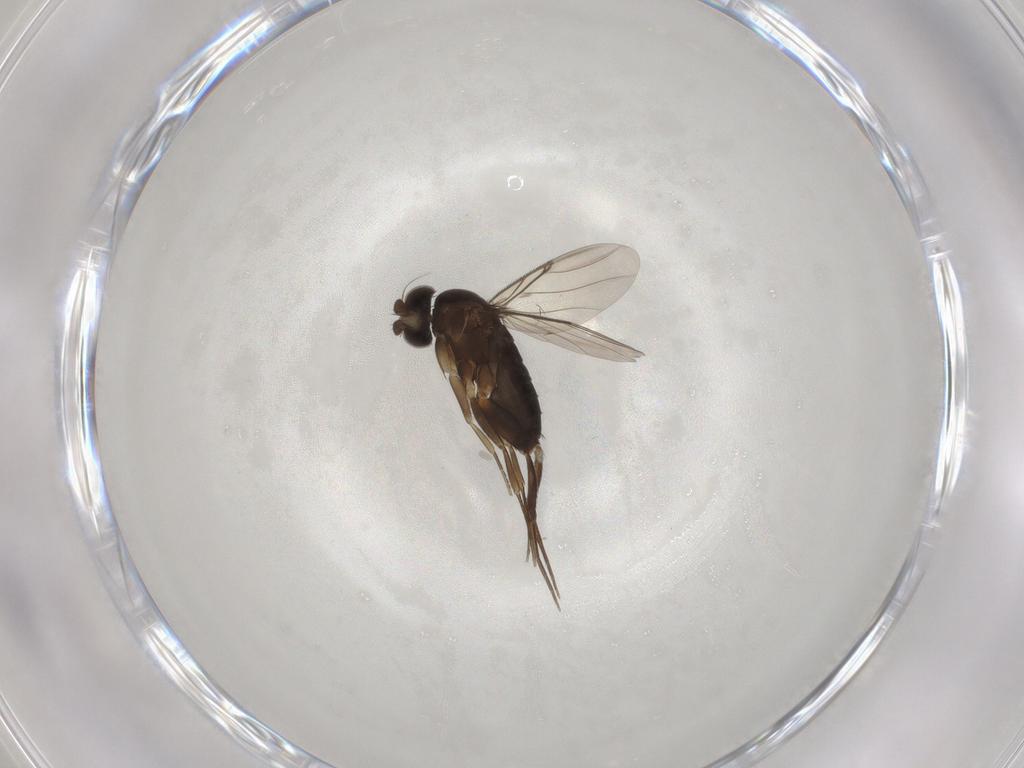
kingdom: Animalia
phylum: Arthropoda
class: Insecta
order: Diptera
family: Phoridae
